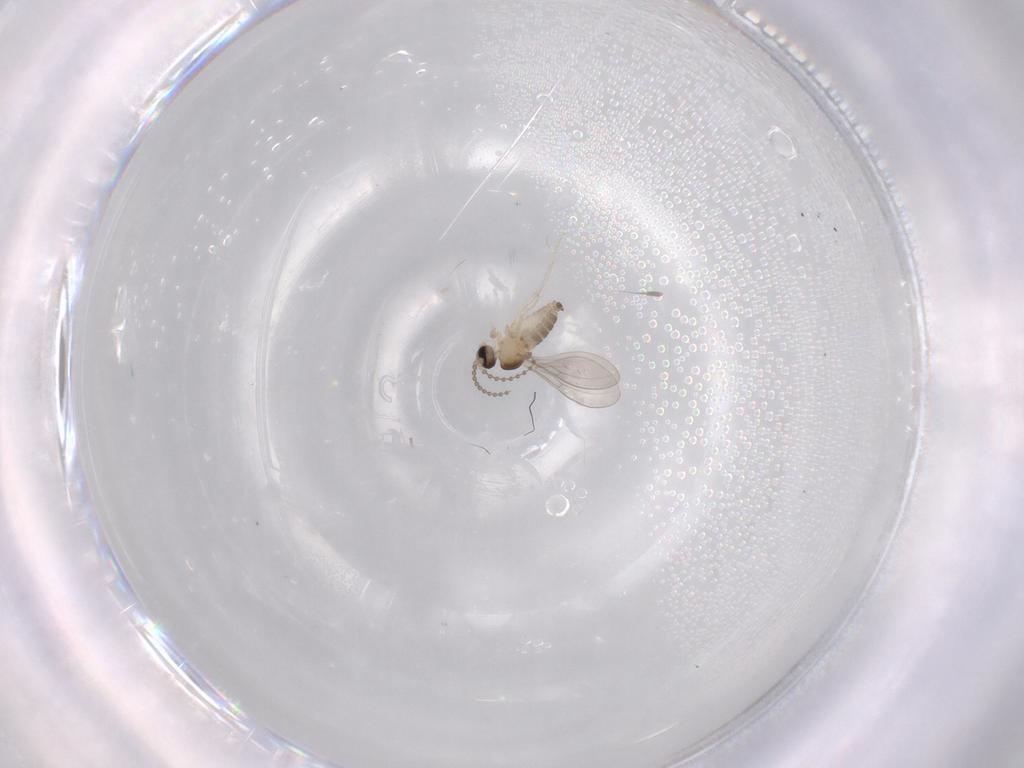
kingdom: Animalia
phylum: Arthropoda
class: Insecta
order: Diptera
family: Cecidomyiidae
